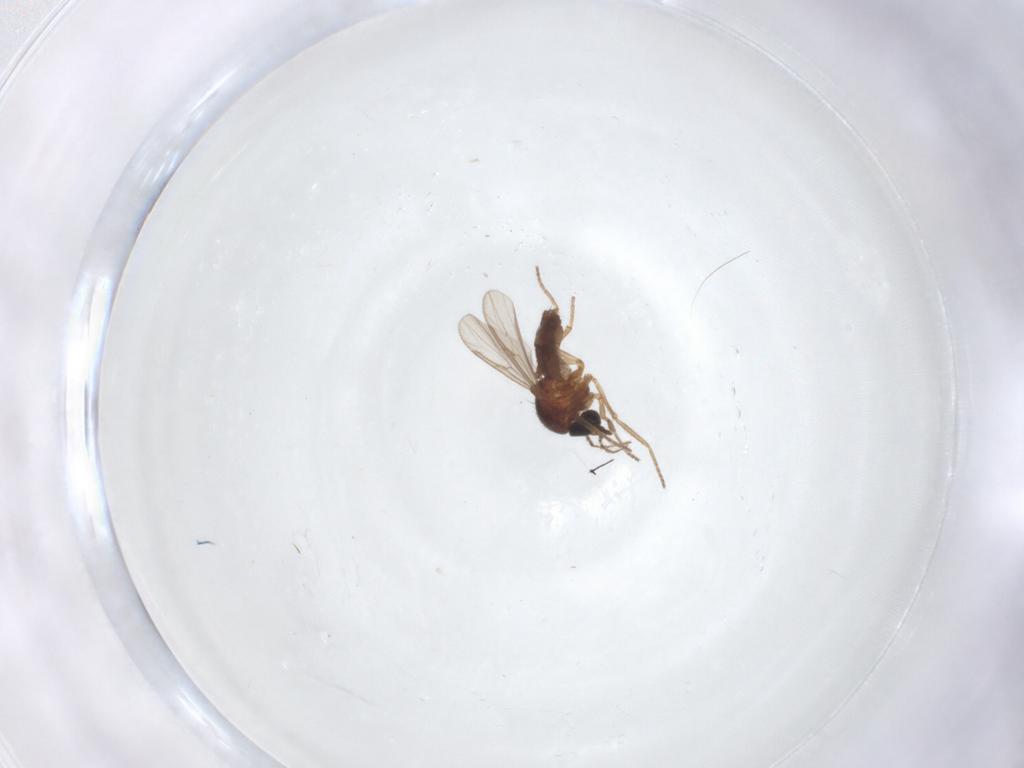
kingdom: Animalia
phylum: Arthropoda
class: Insecta
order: Diptera
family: Ceratopogonidae
